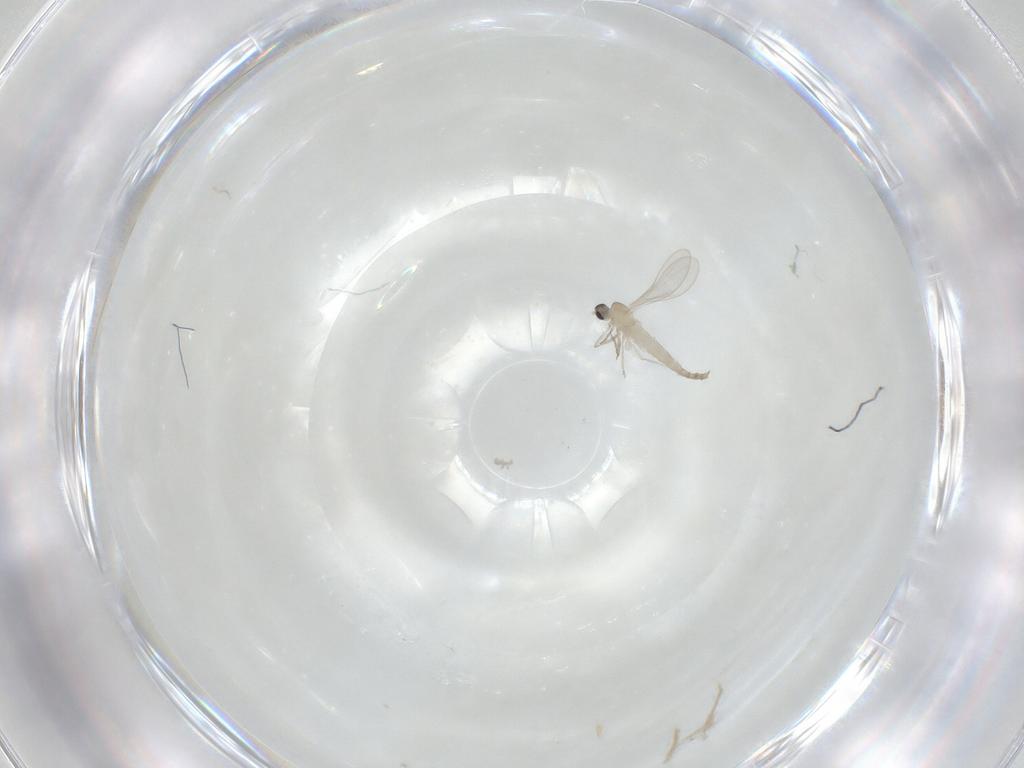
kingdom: Animalia
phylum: Arthropoda
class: Insecta
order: Diptera
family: Cecidomyiidae
